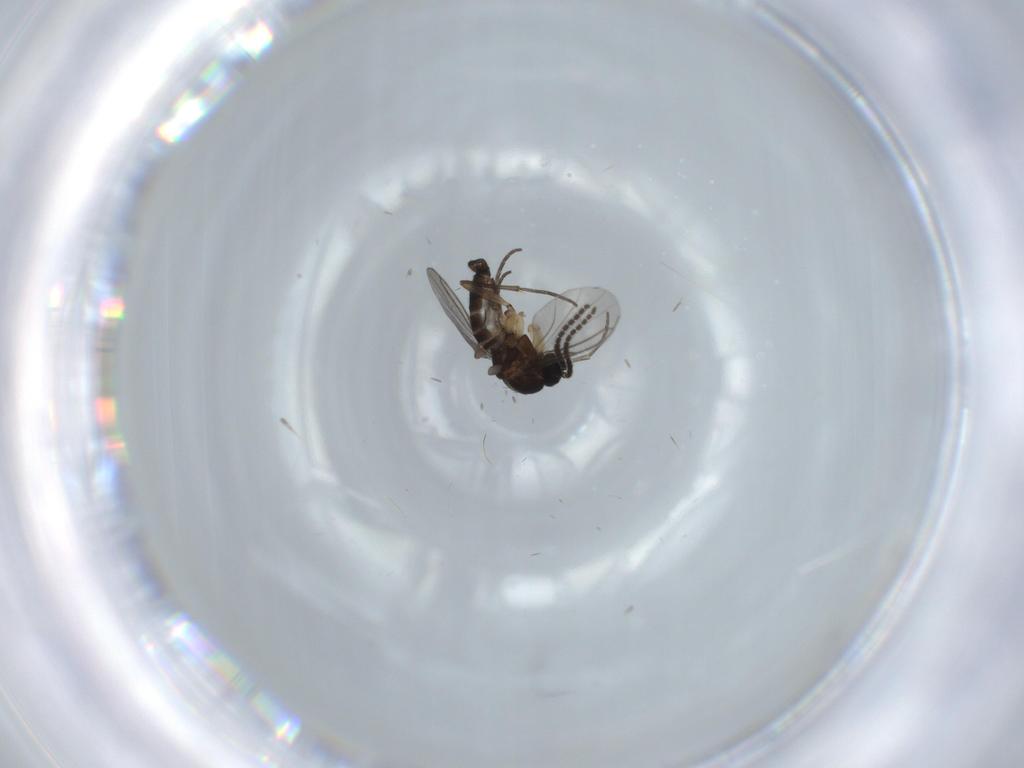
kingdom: Animalia
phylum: Arthropoda
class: Insecta
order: Diptera
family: Sciaridae
